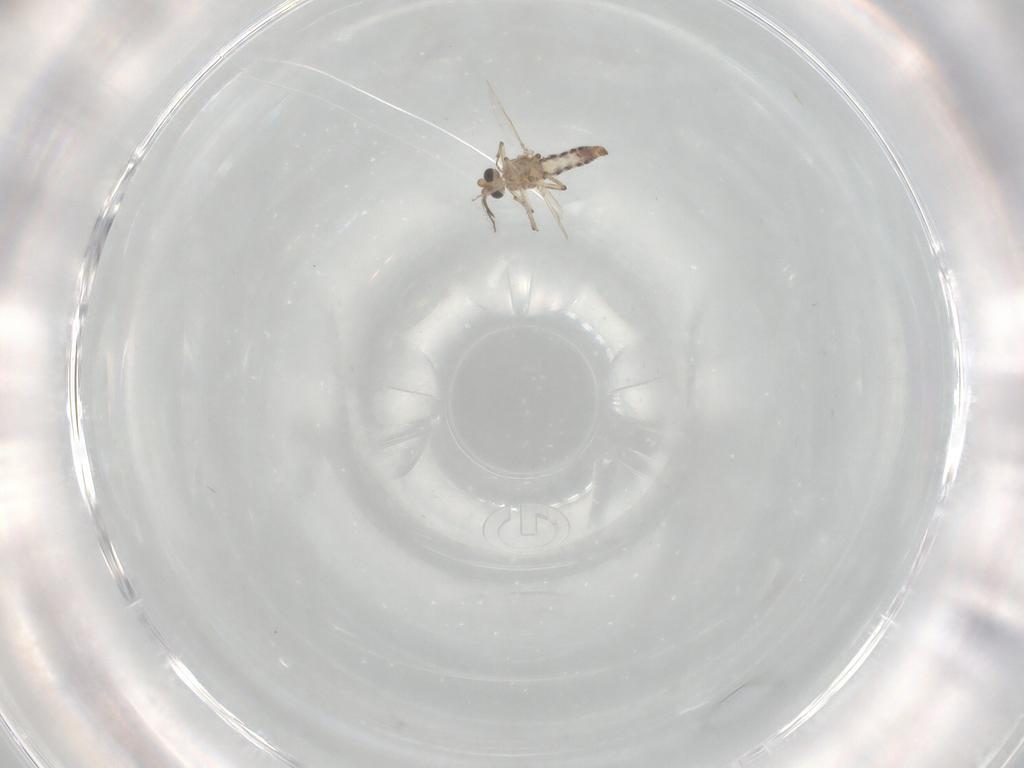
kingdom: Animalia
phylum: Arthropoda
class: Insecta
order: Diptera
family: Ceratopogonidae
